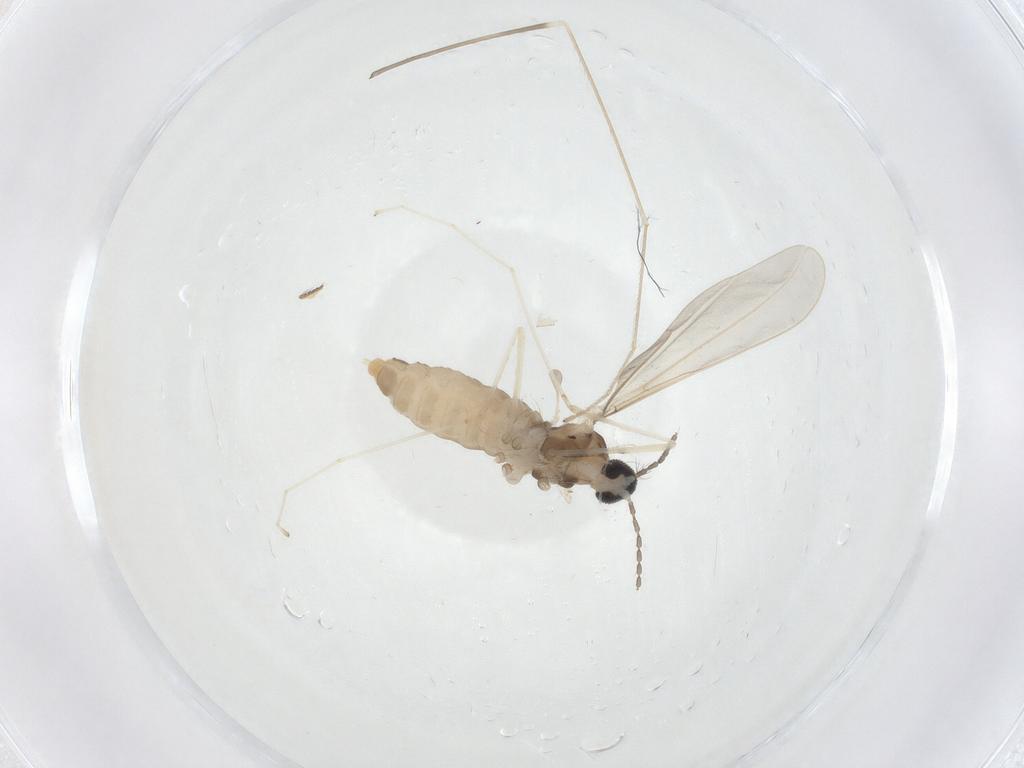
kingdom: Animalia
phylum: Arthropoda
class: Insecta
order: Diptera
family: Cecidomyiidae
